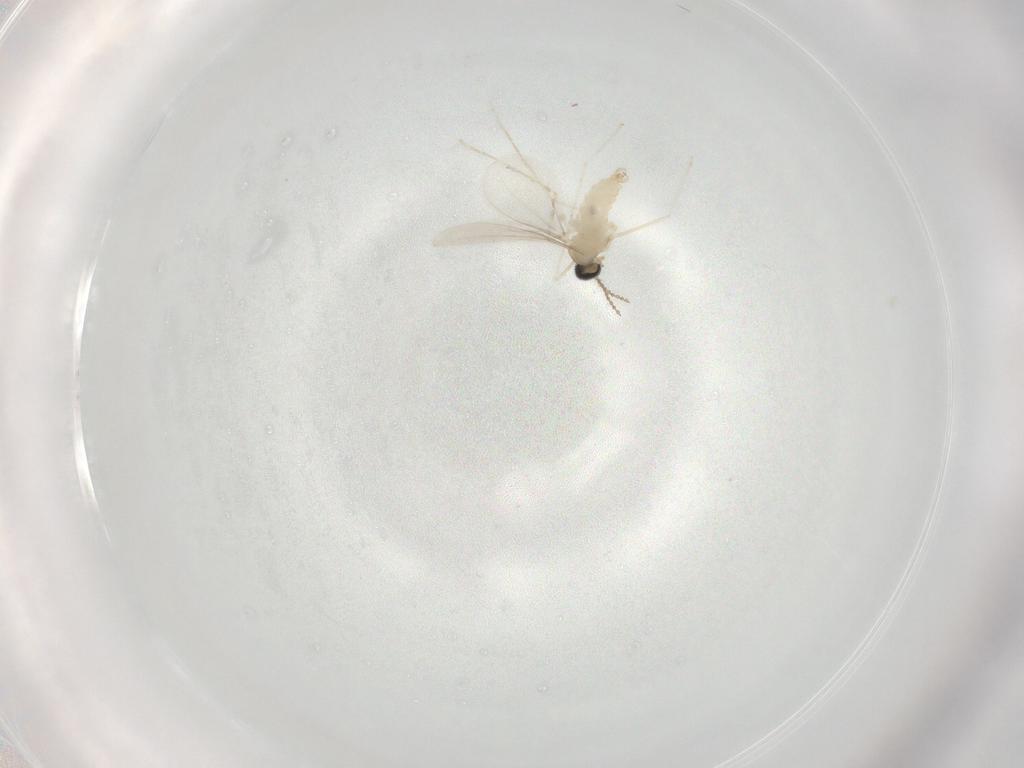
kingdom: Animalia
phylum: Arthropoda
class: Insecta
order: Diptera
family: Cecidomyiidae
